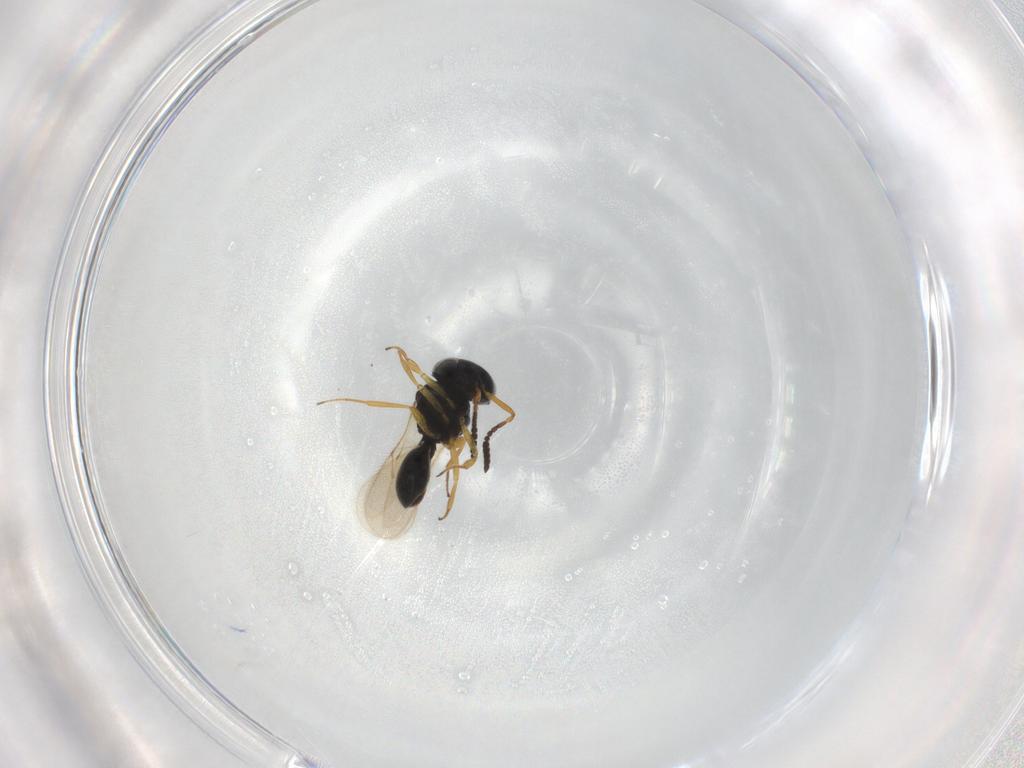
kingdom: Animalia
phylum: Arthropoda
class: Insecta
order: Hymenoptera
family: Scelionidae
